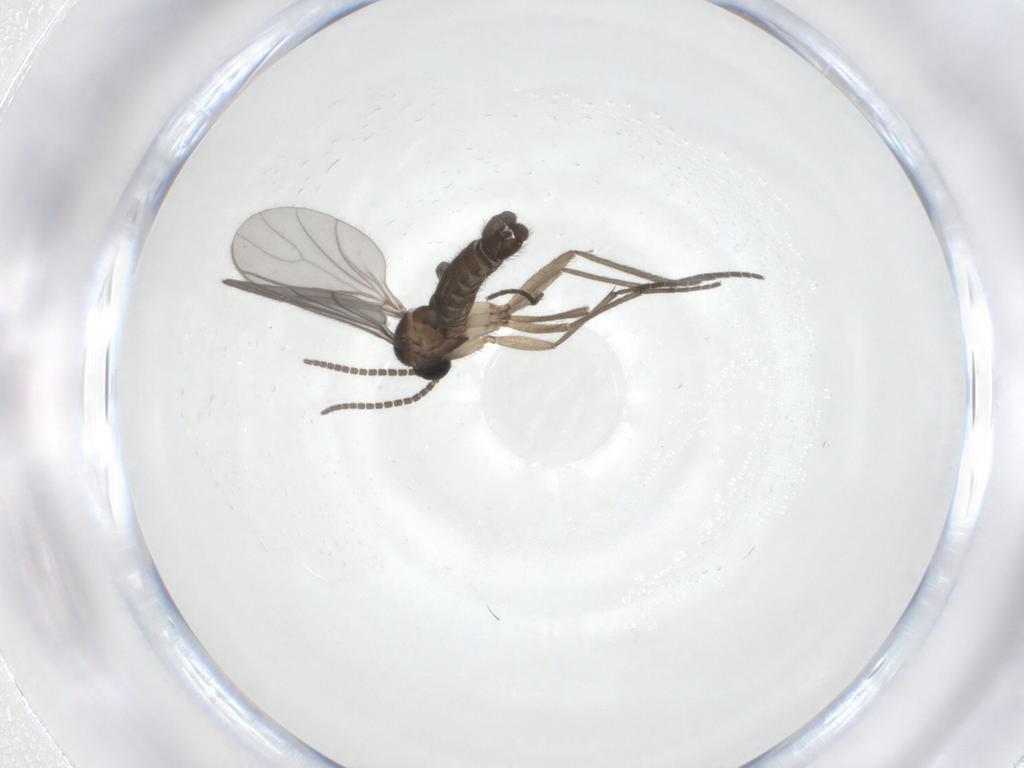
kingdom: Animalia
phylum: Arthropoda
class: Insecta
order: Diptera
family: Sciaridae
